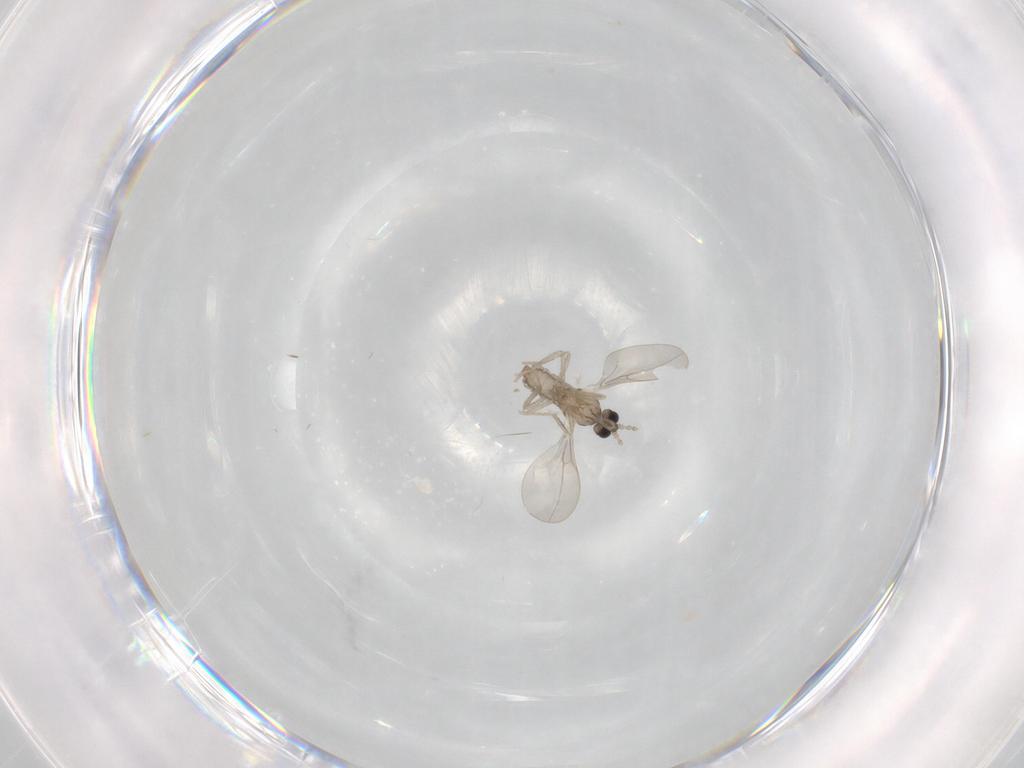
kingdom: Animalia
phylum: Arthropoda
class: Insecta
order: Diptera
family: Cecidomyiidae
